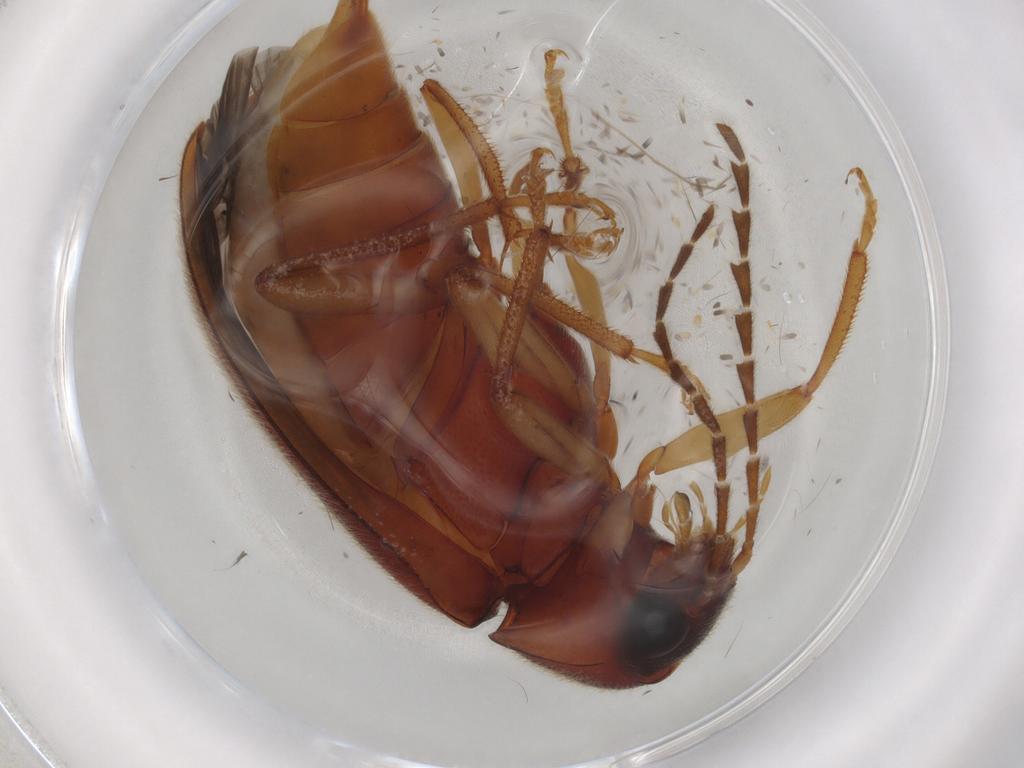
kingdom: Animalia
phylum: Arthropoda
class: Insecta
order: Coleoptera
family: Ptilodactylidae
